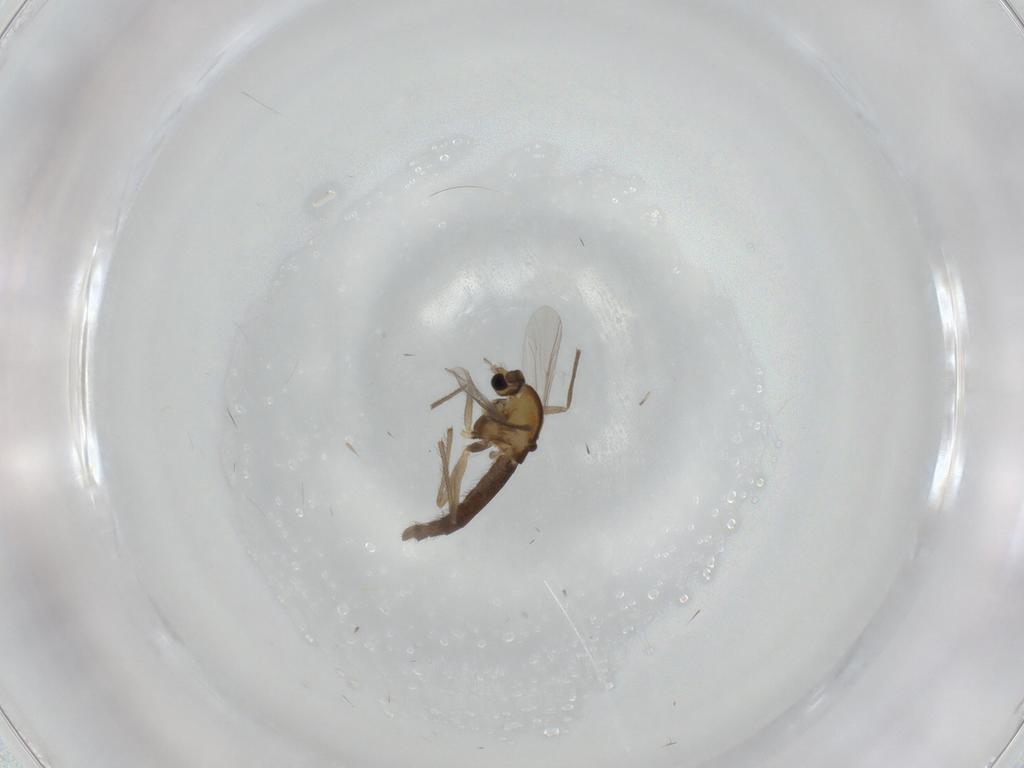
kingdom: Animalia
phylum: Arthropoda
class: Insecta
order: Diptera
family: Chironomidae
